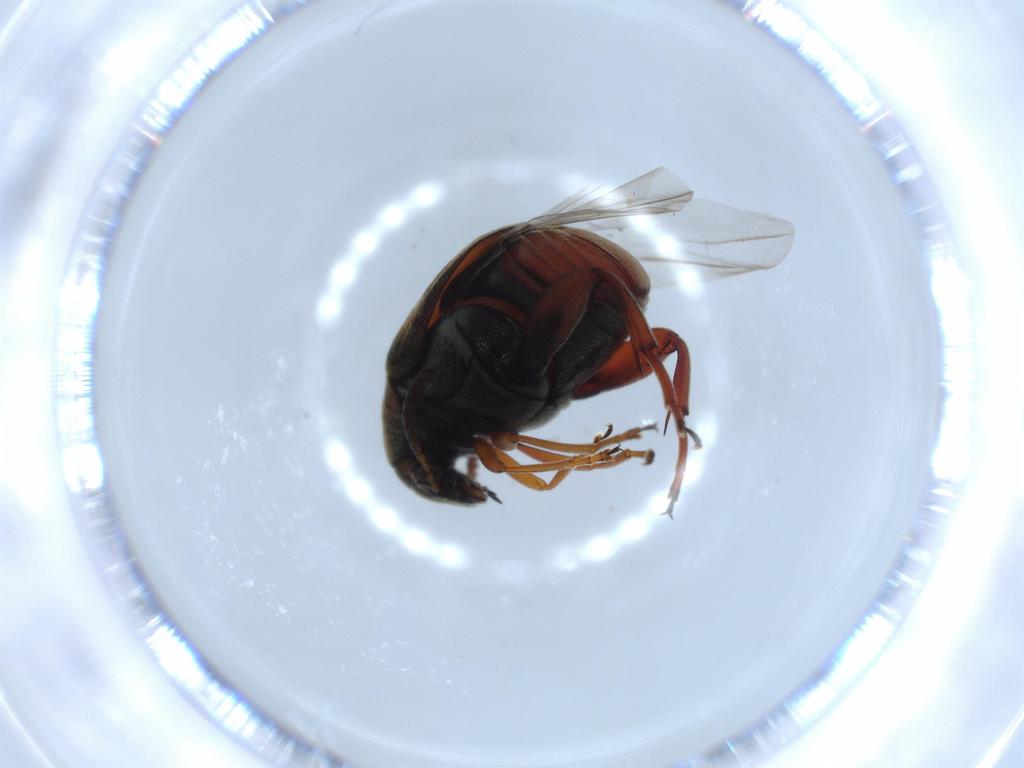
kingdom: Animalia
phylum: Arthropoda
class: Insecta
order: Coleoptera
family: Chrysomelidae
